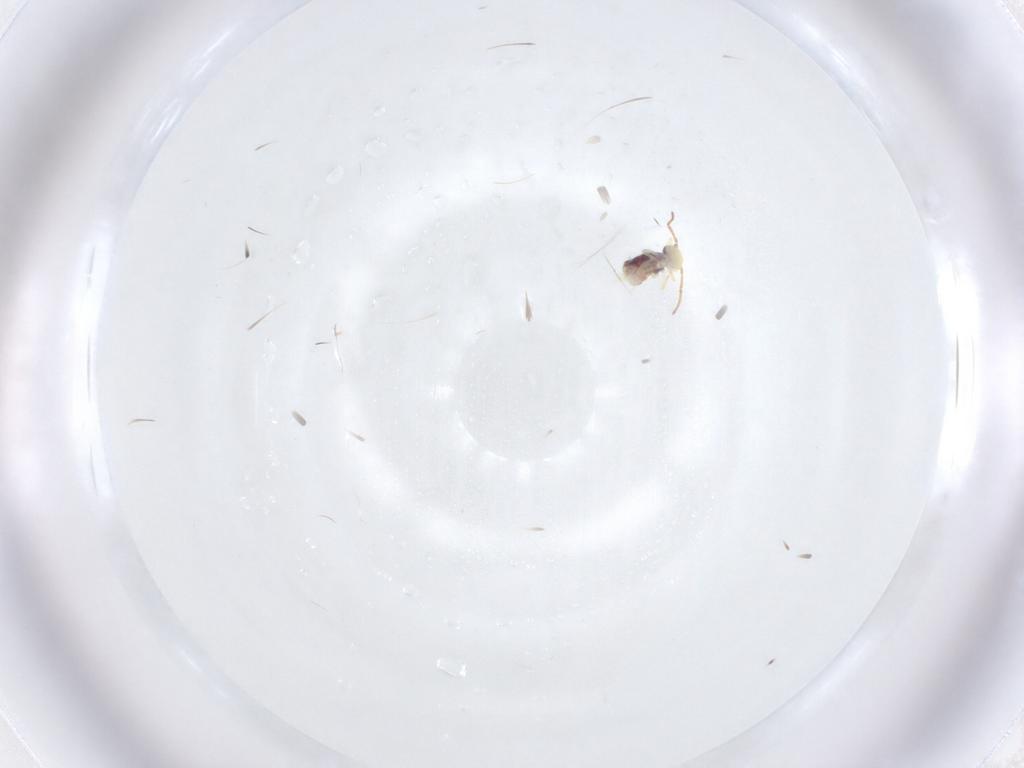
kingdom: Animalia
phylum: Arthropoda
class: Collembola
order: Symphypleona
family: Bourletiellidae
